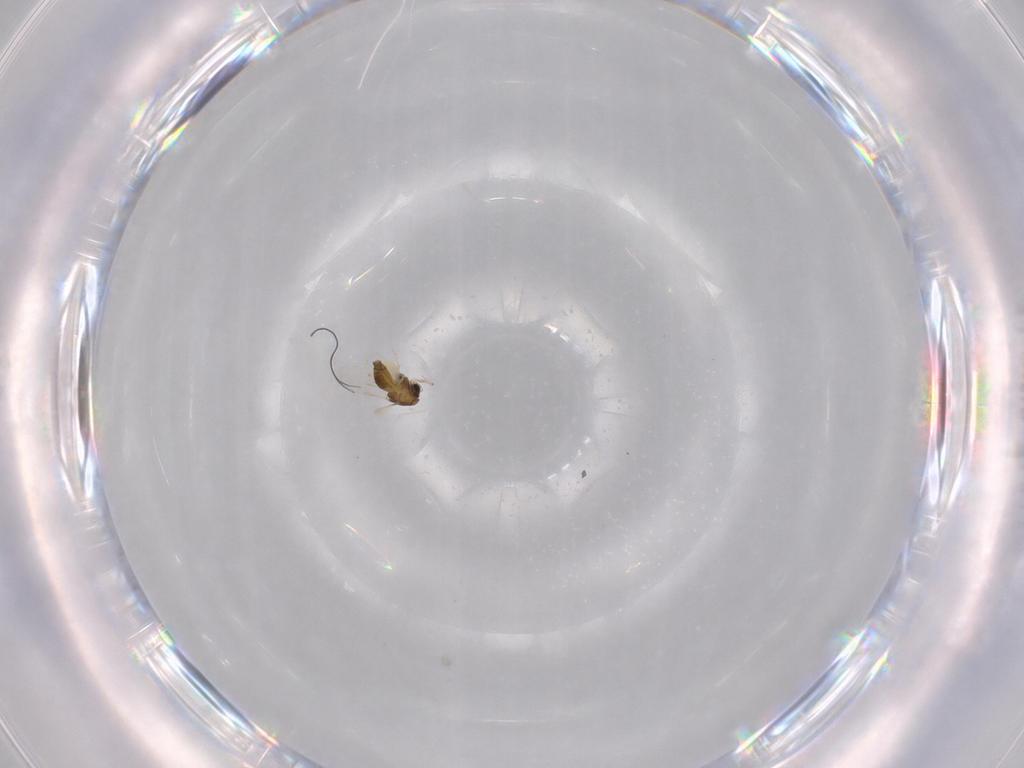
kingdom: Animalia
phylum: Arthropoda
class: Insecta
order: Diptera
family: Chironomidae
